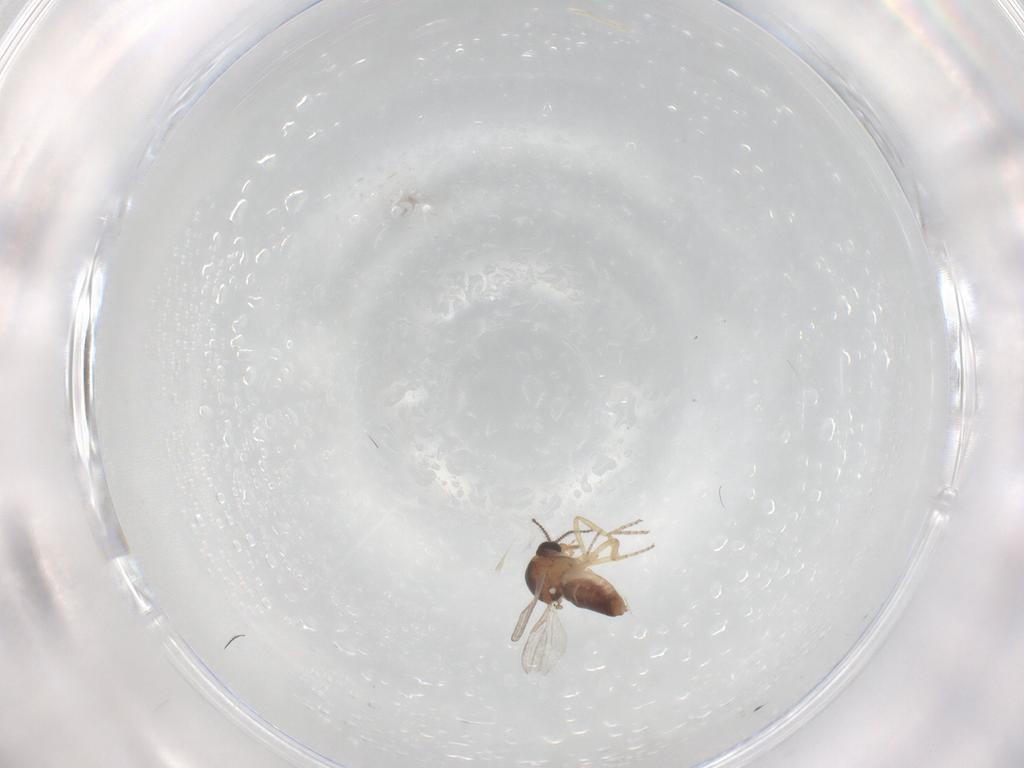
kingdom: Animalia
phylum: Arthropoda
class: Insecta
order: Diptera
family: Ceratopogonidae
